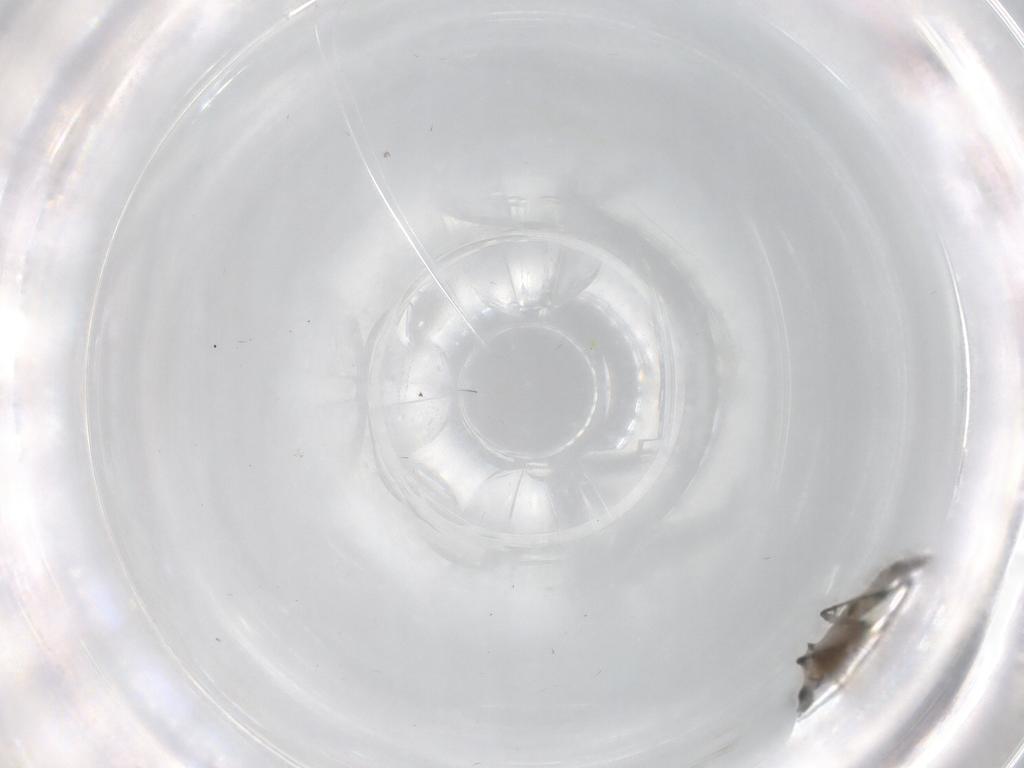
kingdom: Animalia
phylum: Arthropoda
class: Insecta
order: Diptera
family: Sciaridae
